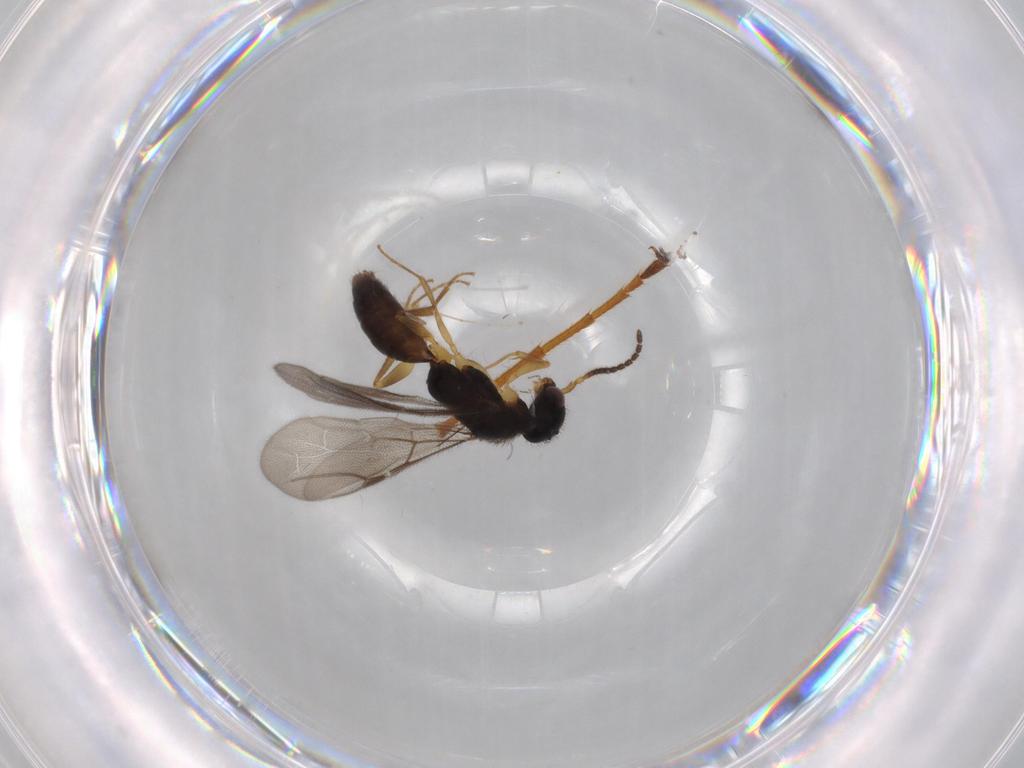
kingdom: Animalia
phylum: Arthropoda
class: Insecta
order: Hymenoptera
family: Bethylidae
